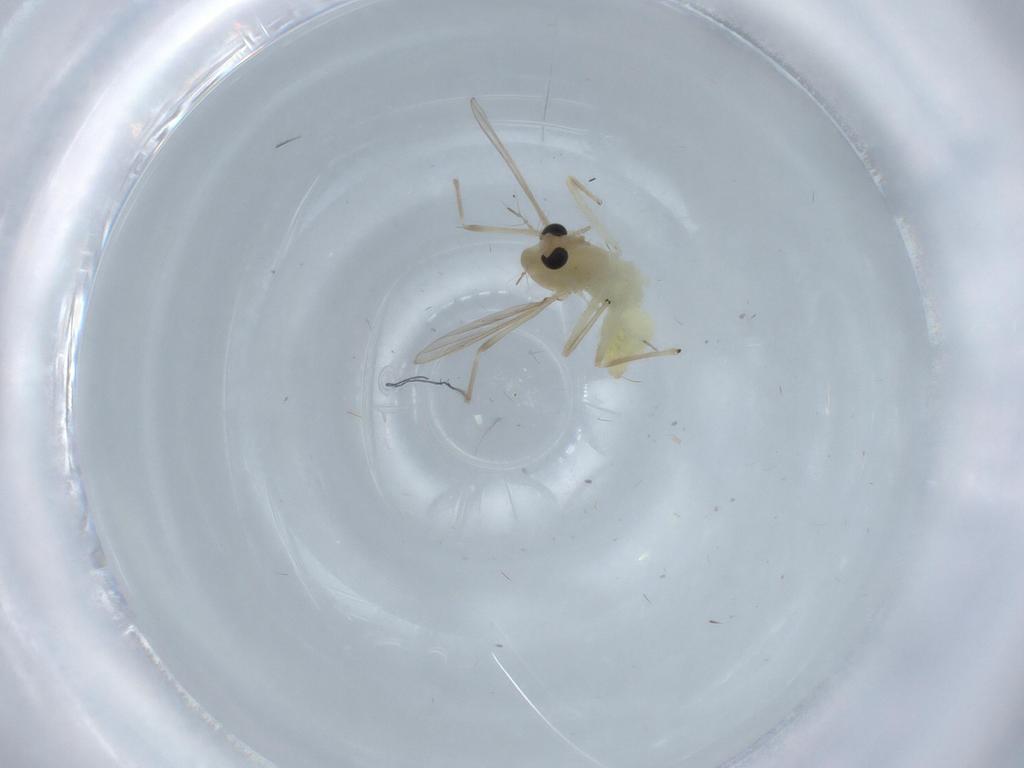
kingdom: Animalia
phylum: Arthropoda
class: Insecta
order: Diptera
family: Chironomidae
